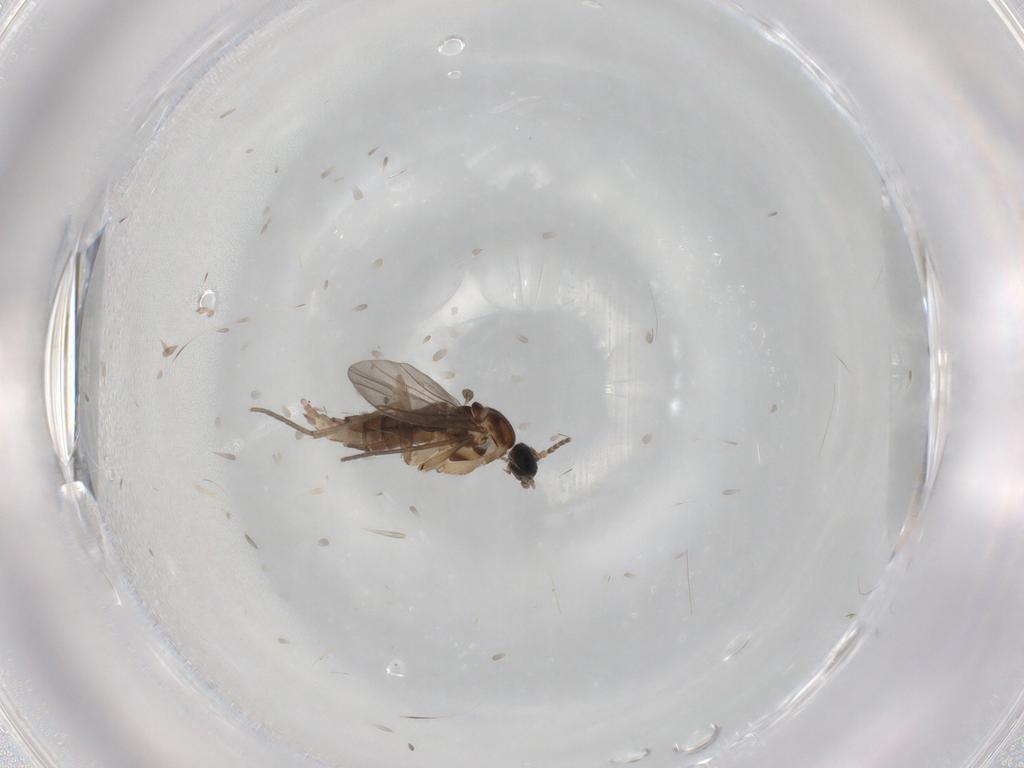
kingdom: Animalia
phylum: Arthropoda
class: Insecta
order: Diptera
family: Sciaridae
